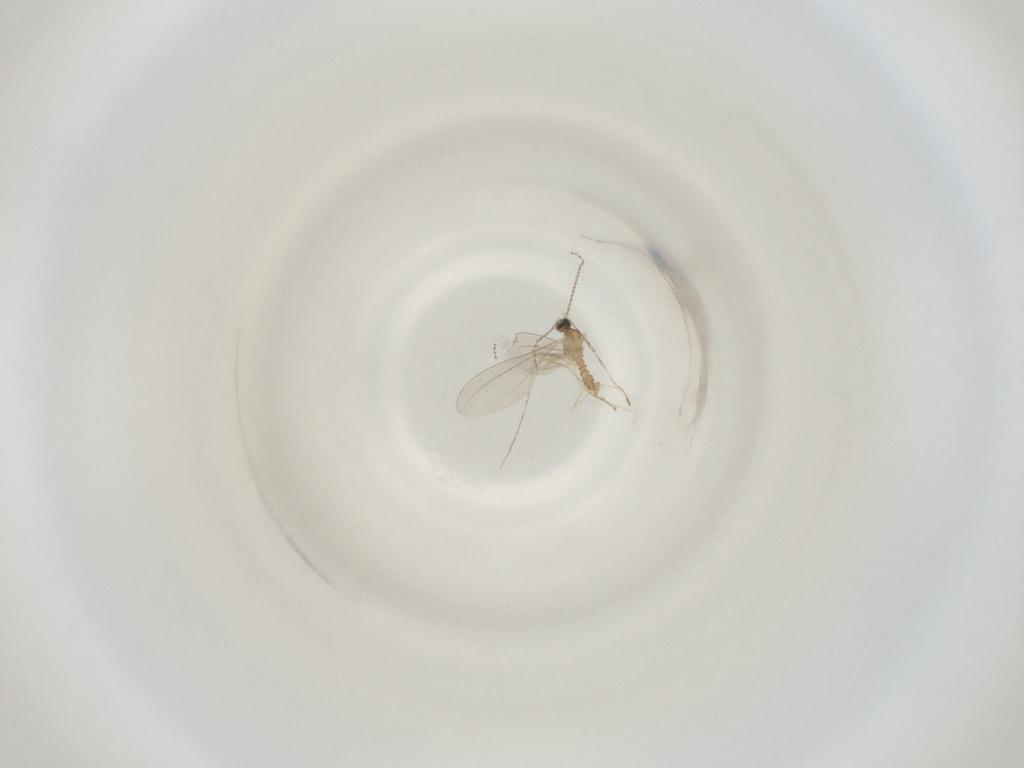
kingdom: Animalia
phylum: Arthropoda
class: Insecta
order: Diptera
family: Cecidomyiidae
